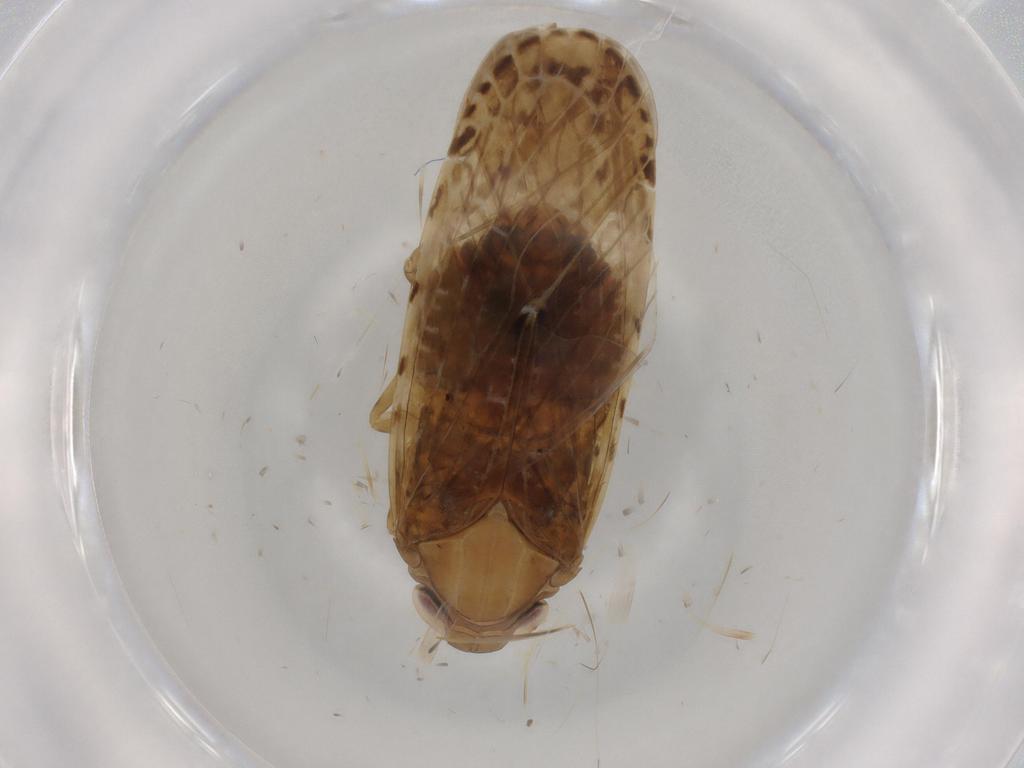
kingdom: Animalia
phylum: Arthropoda
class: Insecta
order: Hemiptera
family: Rhyparochromidae
